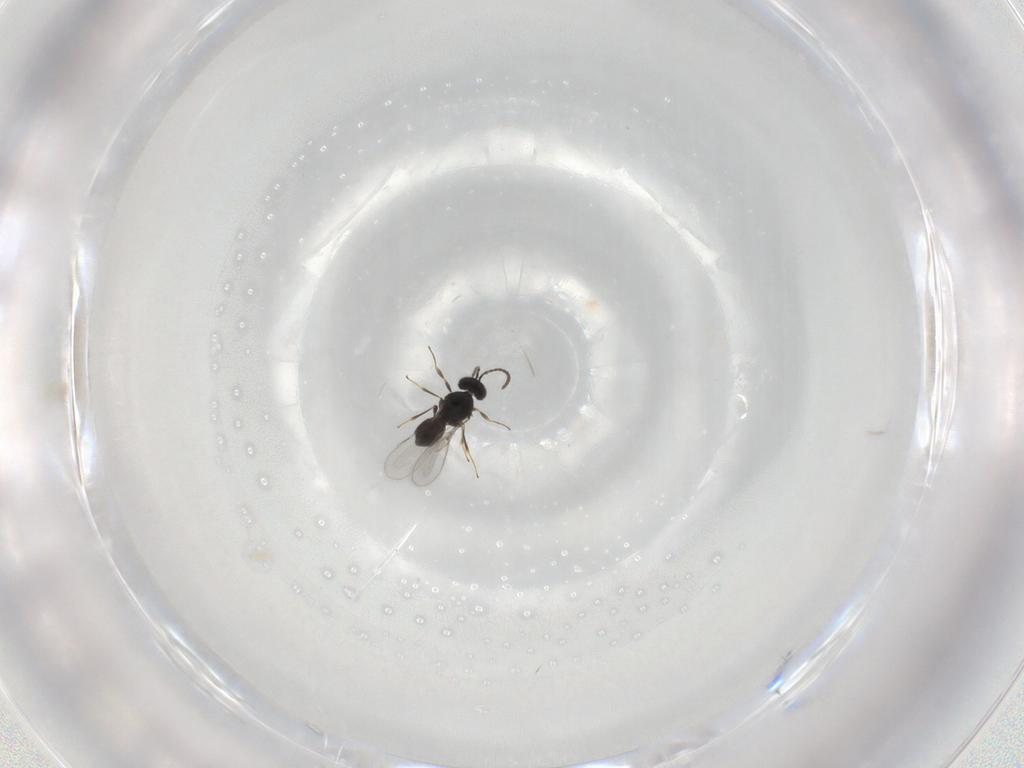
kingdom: Animalia
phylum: Arthropoda
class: Insecta
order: Hymenoptera
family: Scelionidae
